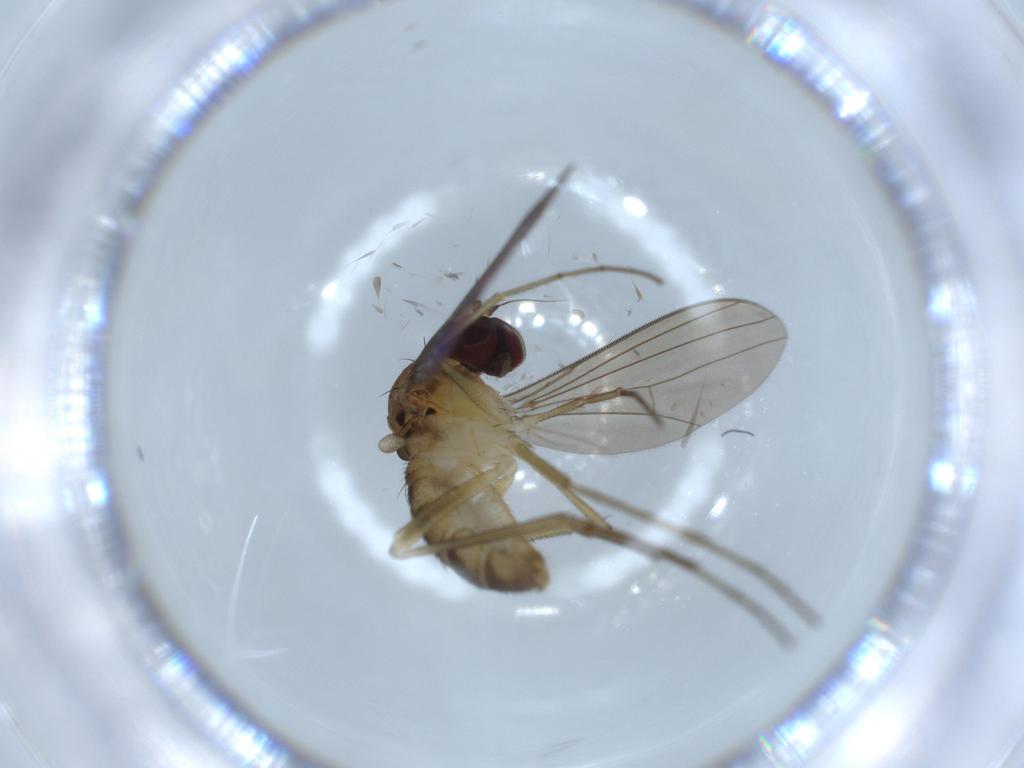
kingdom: Animalia
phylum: Arthropoda
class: Insecta
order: Diptera
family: Dolichopodidae
